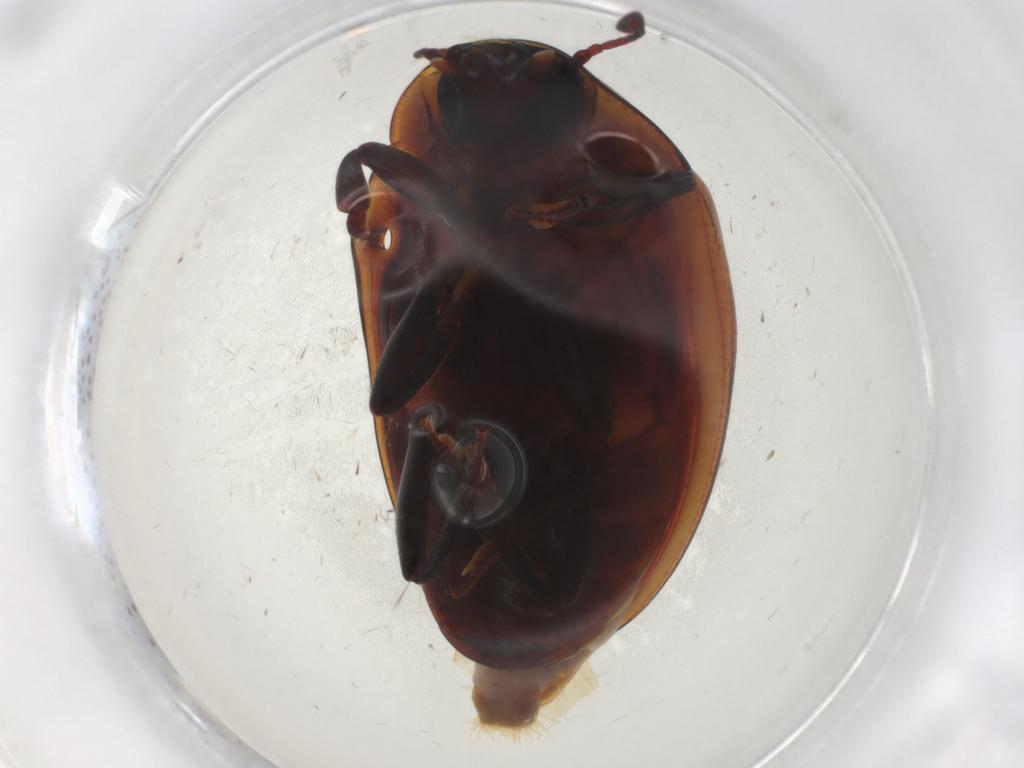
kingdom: Animalia
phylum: Arthropoda
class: Insecta
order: Coleoptera
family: Zopheridae
